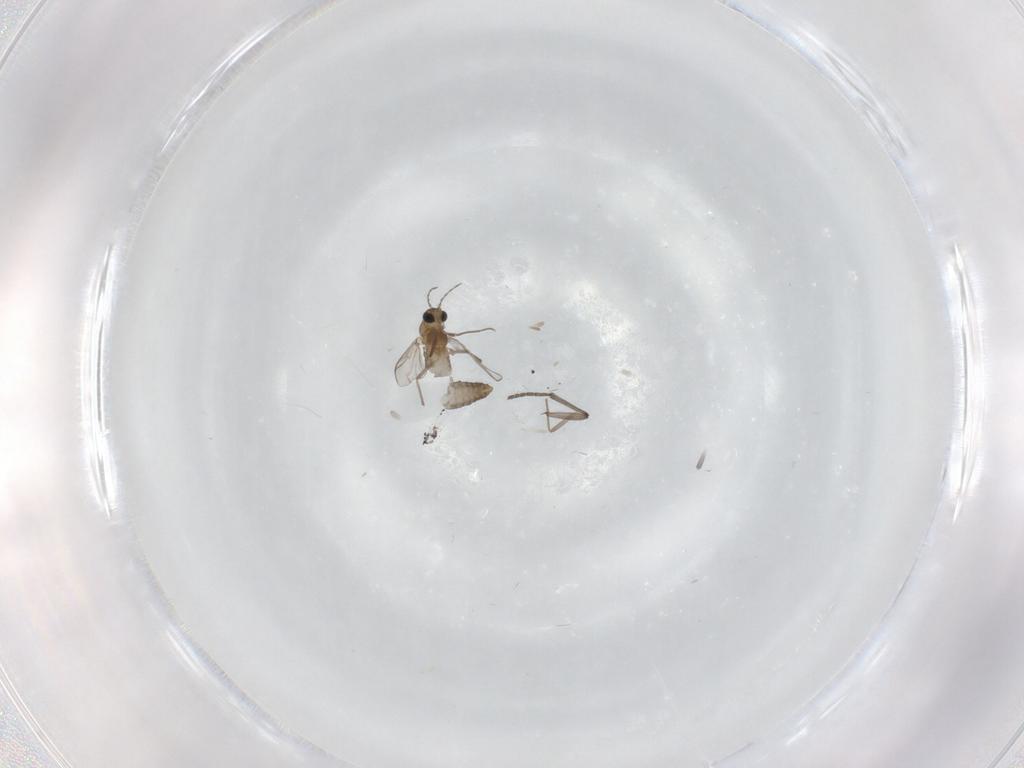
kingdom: Animalia
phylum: Arthropoda
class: Insecta
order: Diptera
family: Chironomidae
